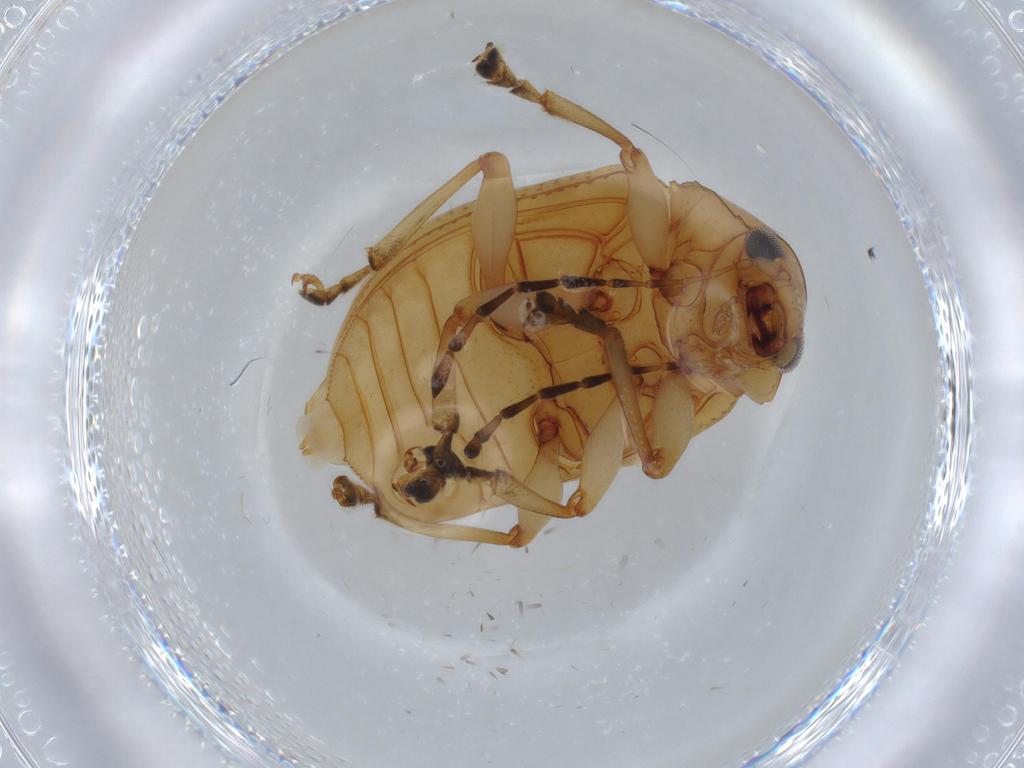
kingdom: Animalia
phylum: Arthropoda
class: Insecta
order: Coleoptera
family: Chrysomelidae
